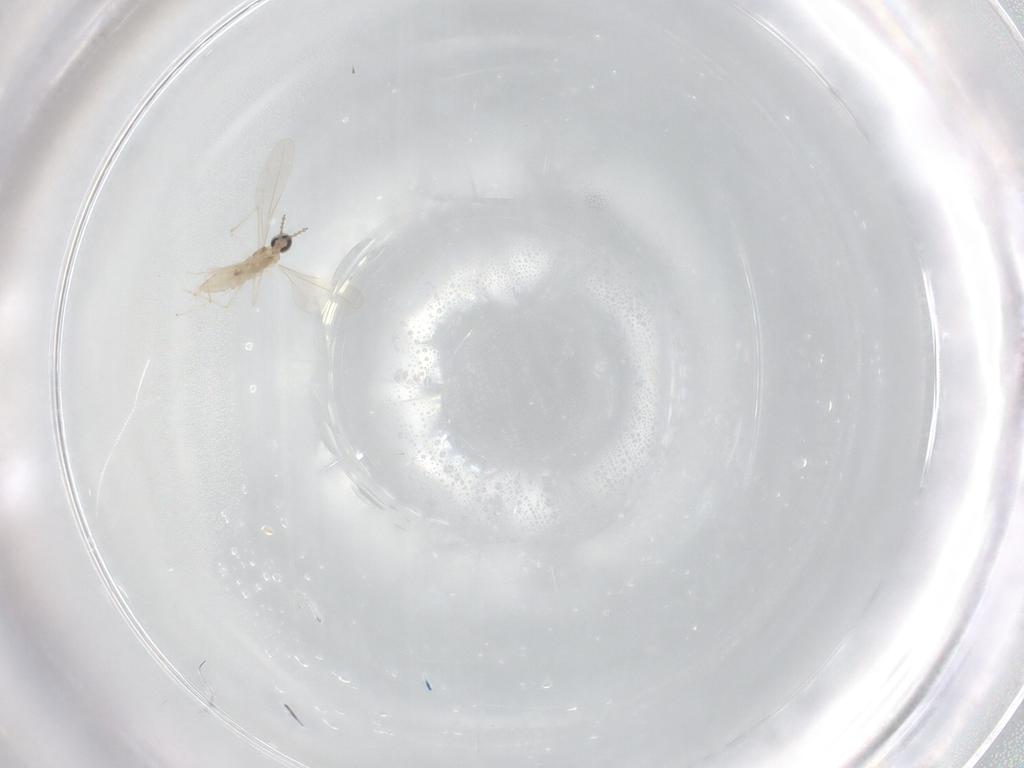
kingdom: Animalia
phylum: Arthropoda
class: Insecta
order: Diptera
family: Cecidomyiidae
